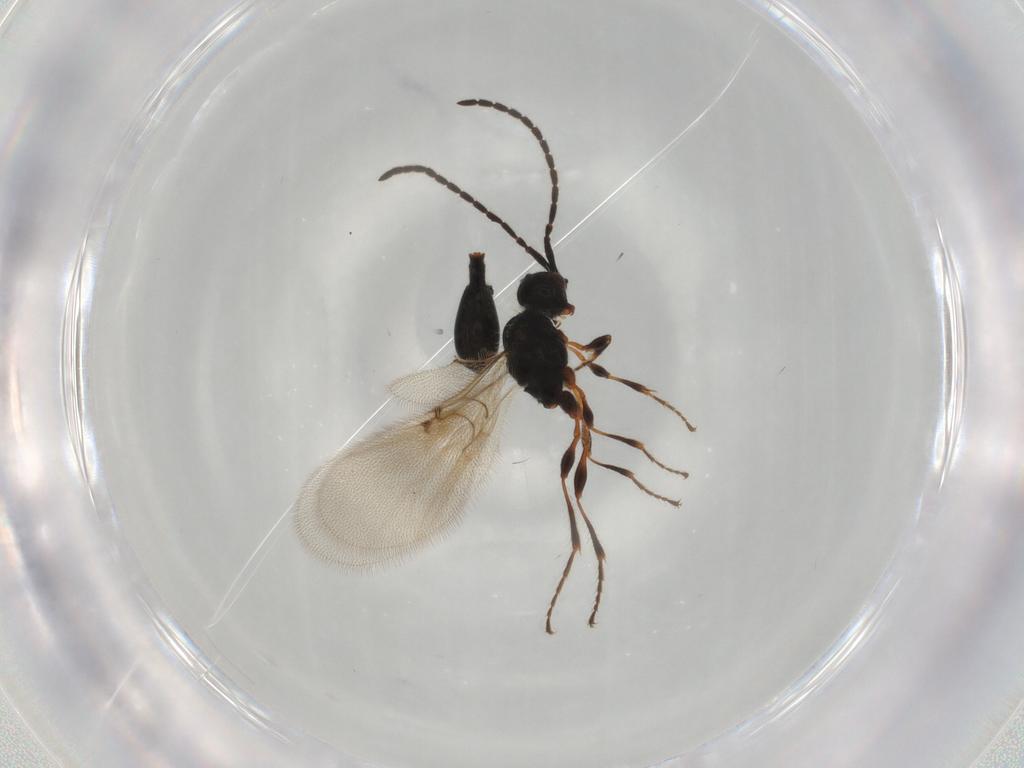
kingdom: Animalia
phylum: Arthropoda
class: Insecta
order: Hymenoptera
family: Diapriidae
